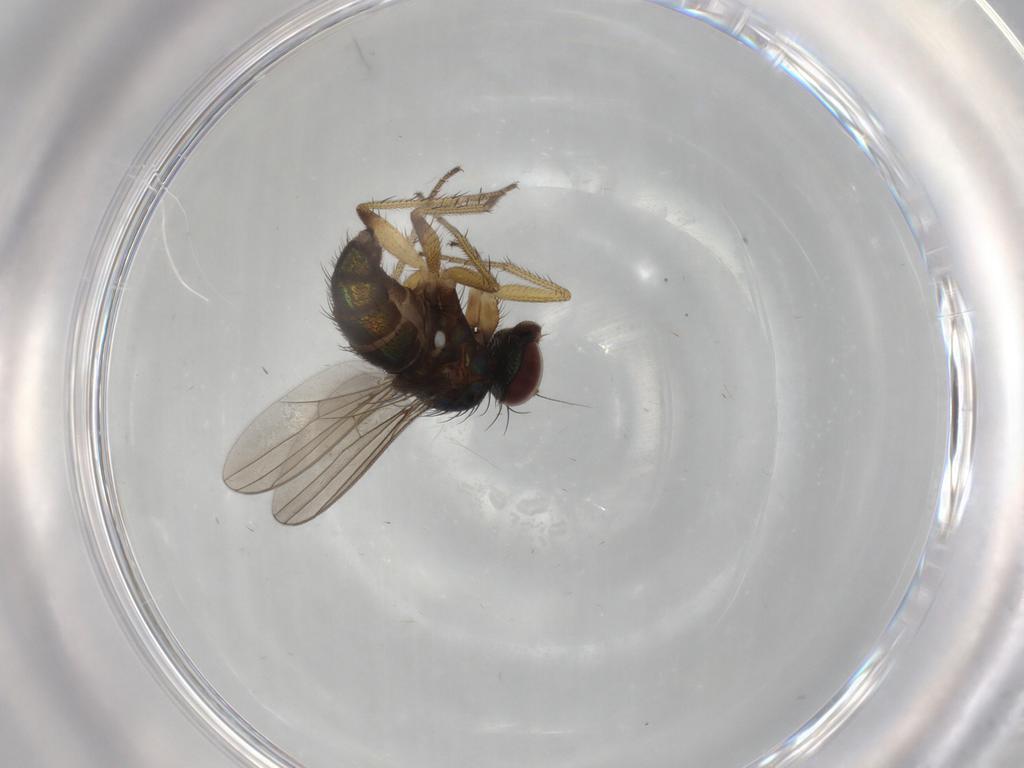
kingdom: Animalia
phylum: Arthropoda
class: Insecta
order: Diptera
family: Dolichopodidae
